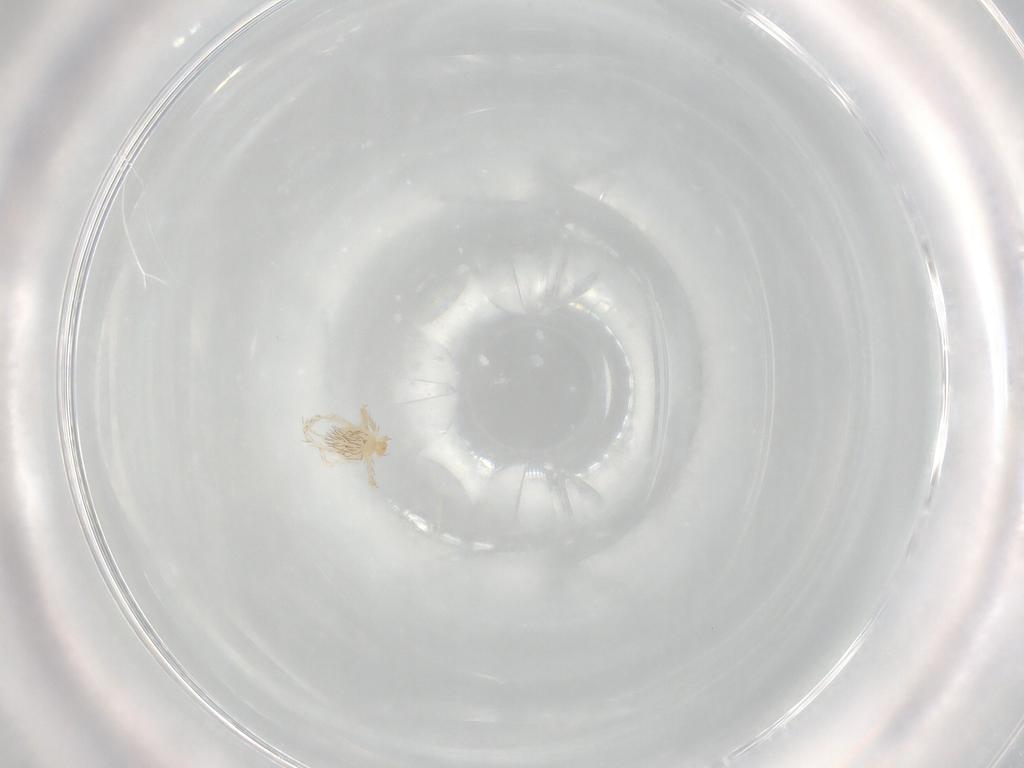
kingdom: Animalia
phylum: Arthropoda
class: Arachnida
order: Trombidiformes
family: Erythraeidae
